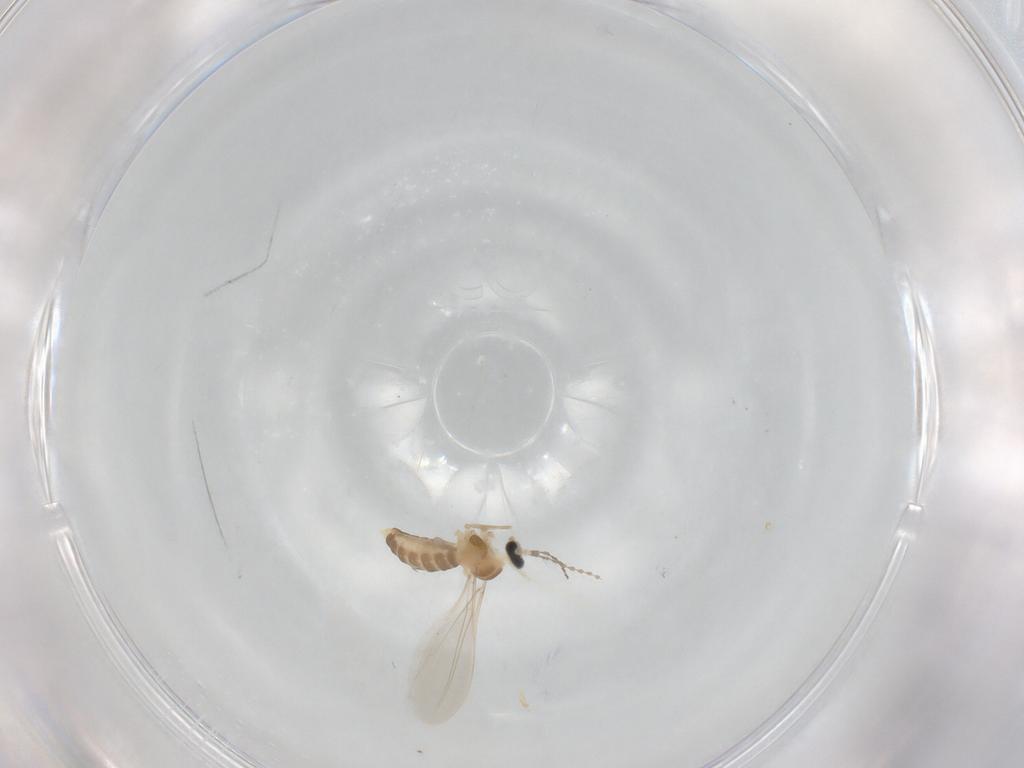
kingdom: Animalia
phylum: Arthropoda
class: Insecta
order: Diptera
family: Cecidomyiidae
